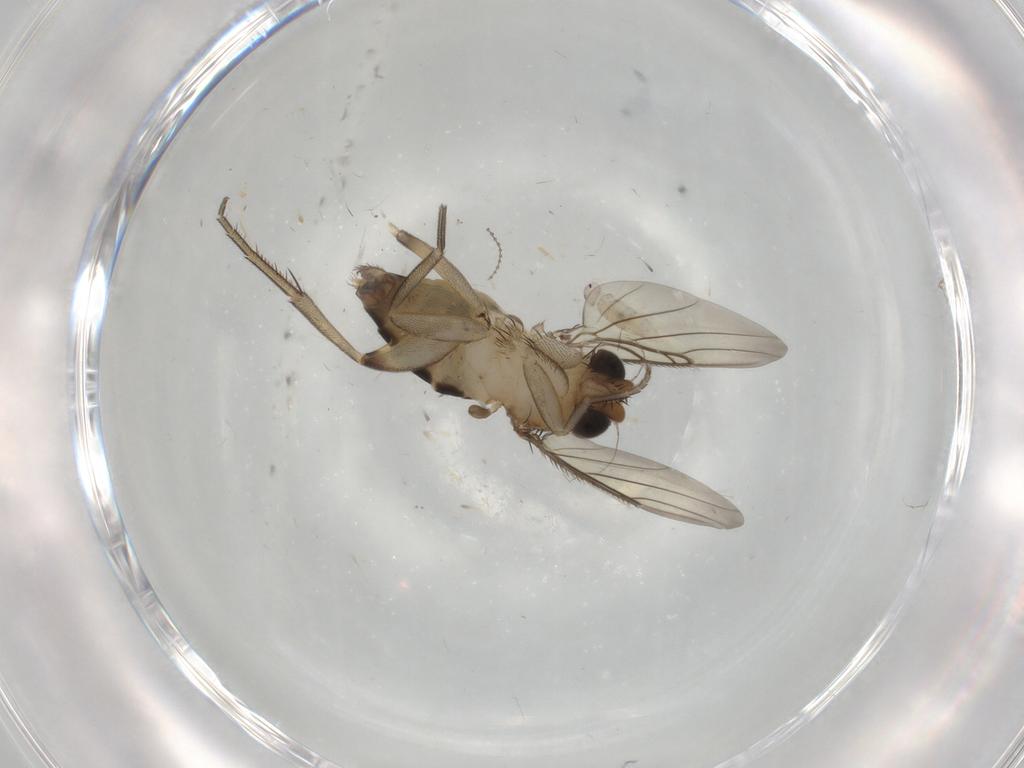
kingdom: Animalia
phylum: Arthropoda
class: Insecta
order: Diptera
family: Phoridae
